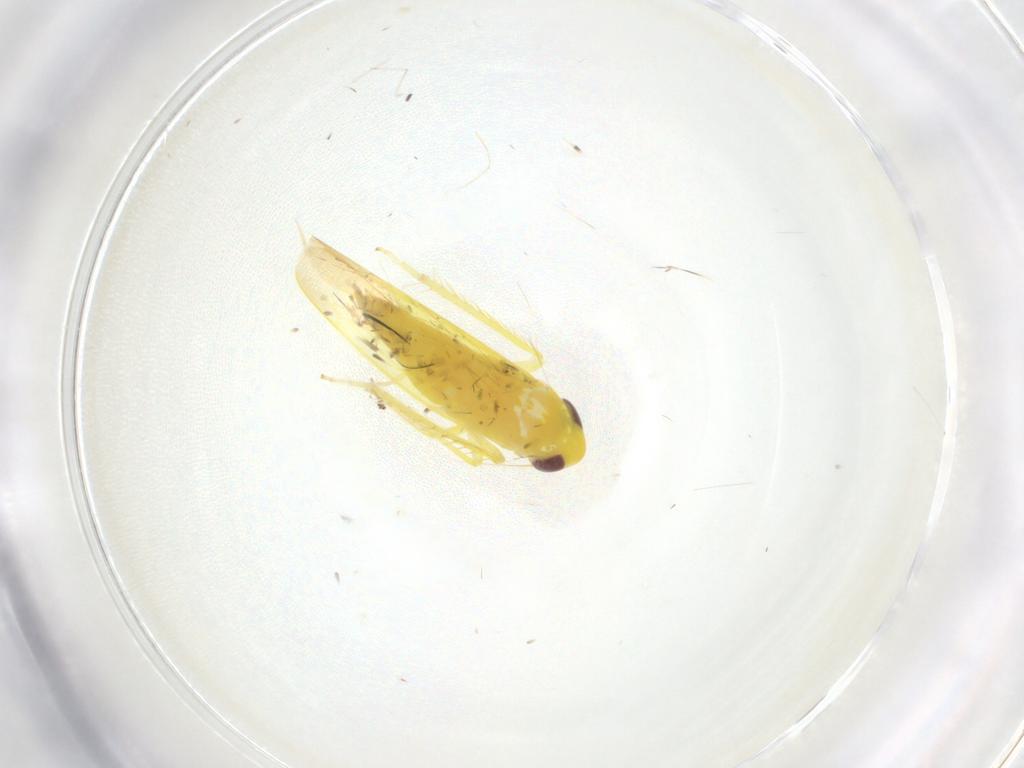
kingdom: Animalia
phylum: Arthropoda
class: Insecta
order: Hemiptera
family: Cicadellidae
